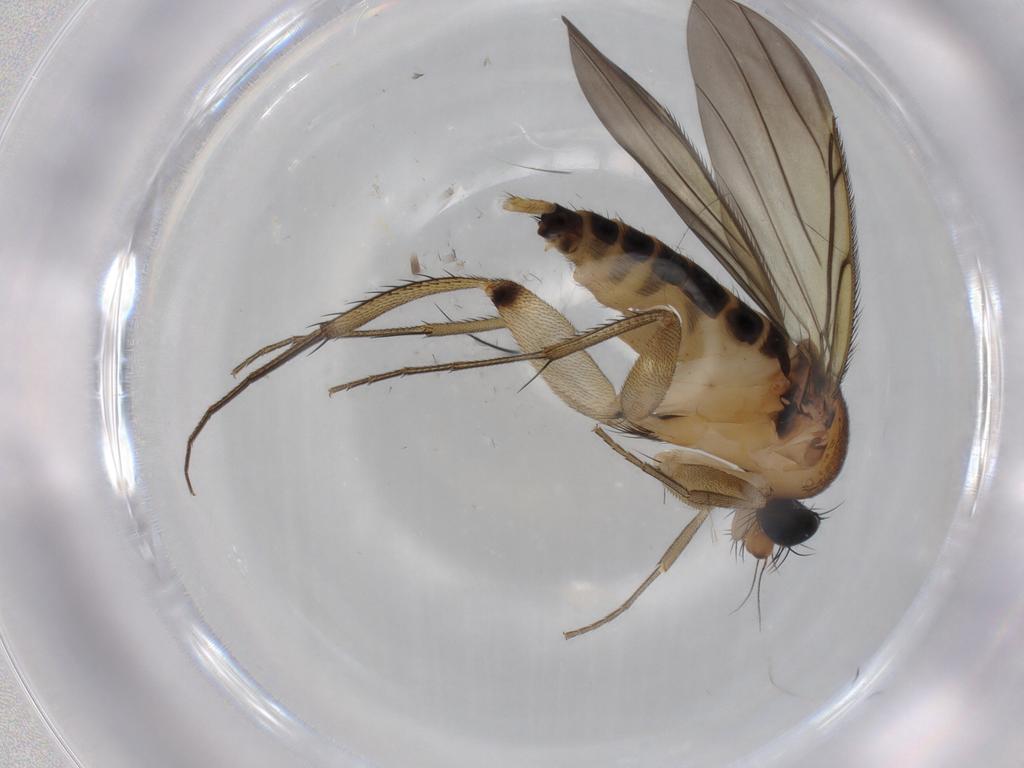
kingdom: Animalia
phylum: Arthropoda
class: Insecta
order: Diptera
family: Phoridae
